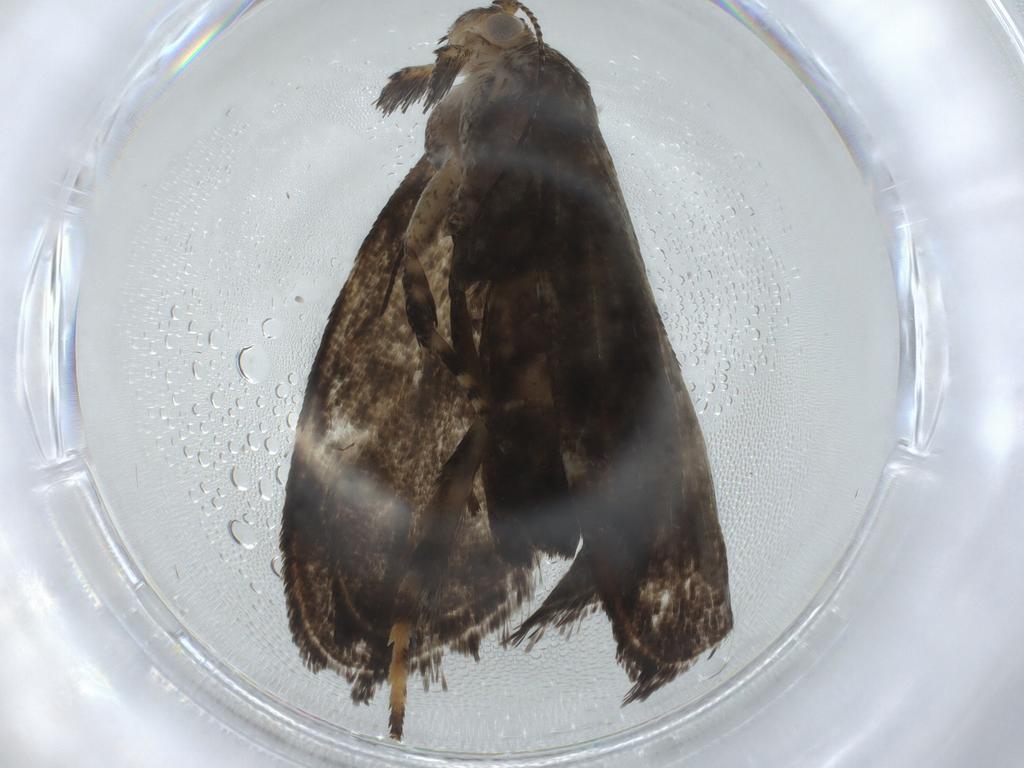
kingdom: Animalia
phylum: Arthropoda
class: Insecta
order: Lepidoptera
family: Choreutidae
